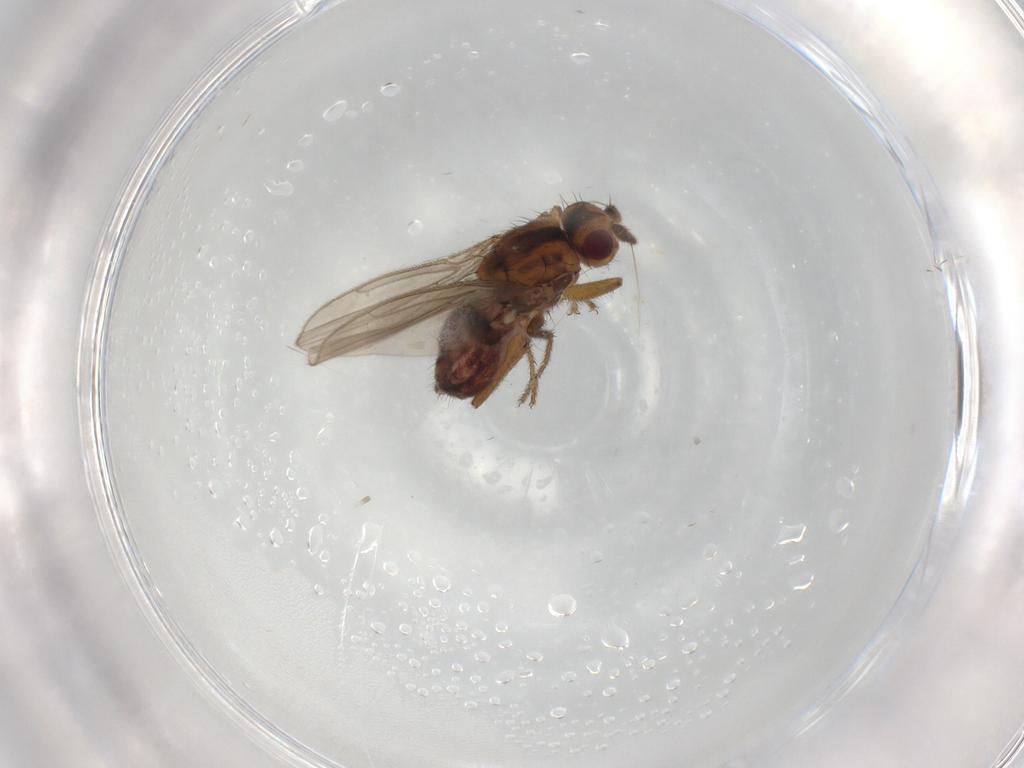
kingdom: Animalia
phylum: Arthropoda
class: Insecta
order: Diptera
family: Sphaeroceridae
